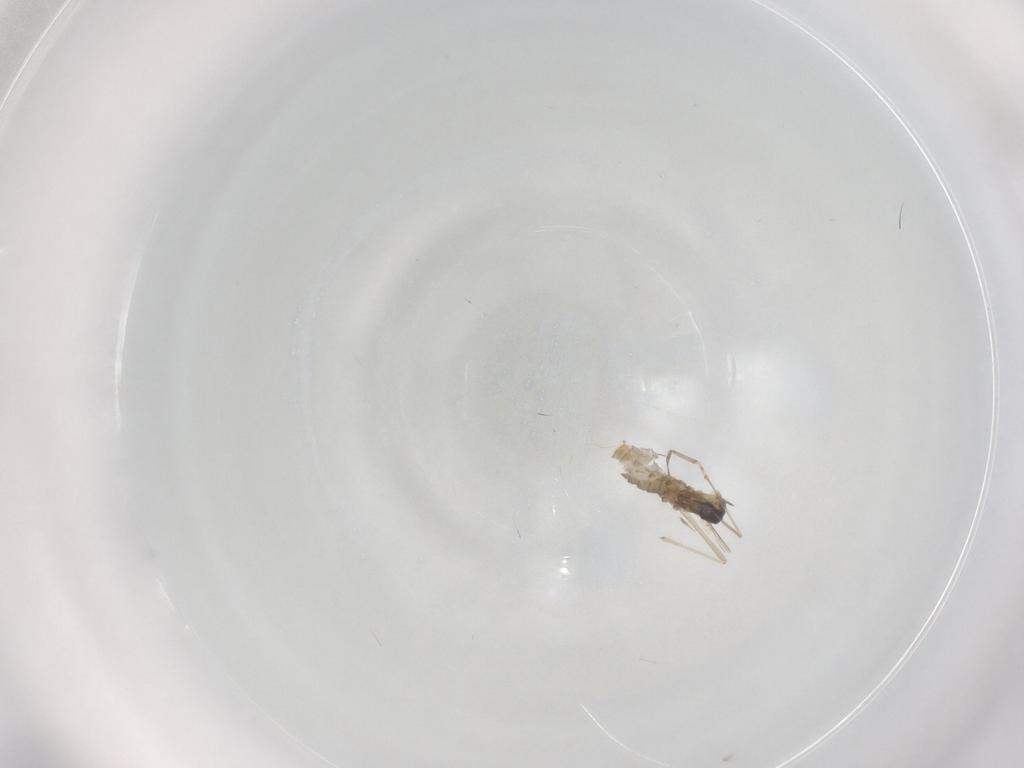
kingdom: Animalia
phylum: Arthropoda
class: Insecta
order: Diptera
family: Cecidomyiidae
